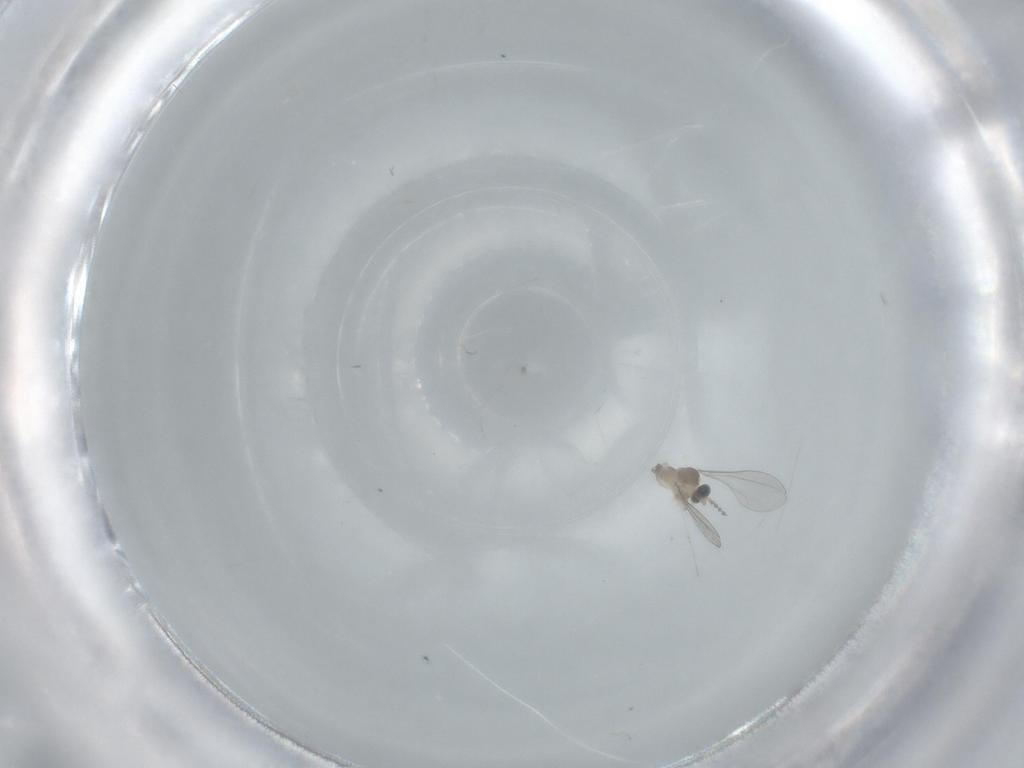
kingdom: Animalia
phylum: Arthropoda
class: Insecta
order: Diptera
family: Cecidomyiidae
